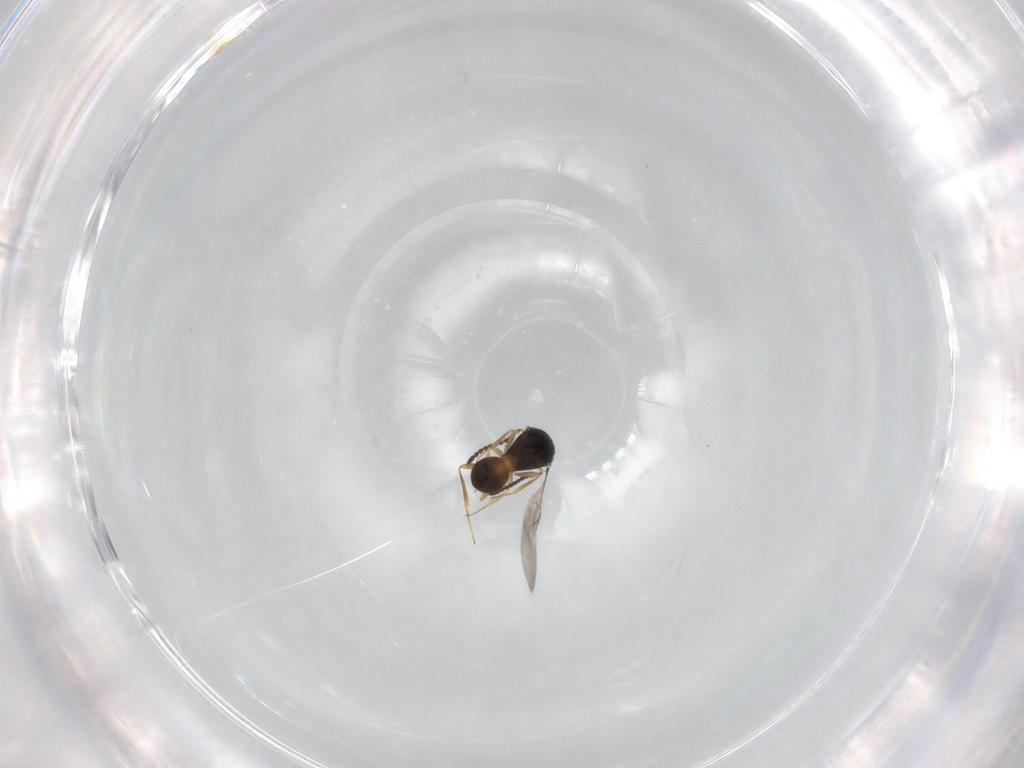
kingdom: Animalia
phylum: Arthropoda
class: Insecta
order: Hymenoptera
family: Scelionidae
